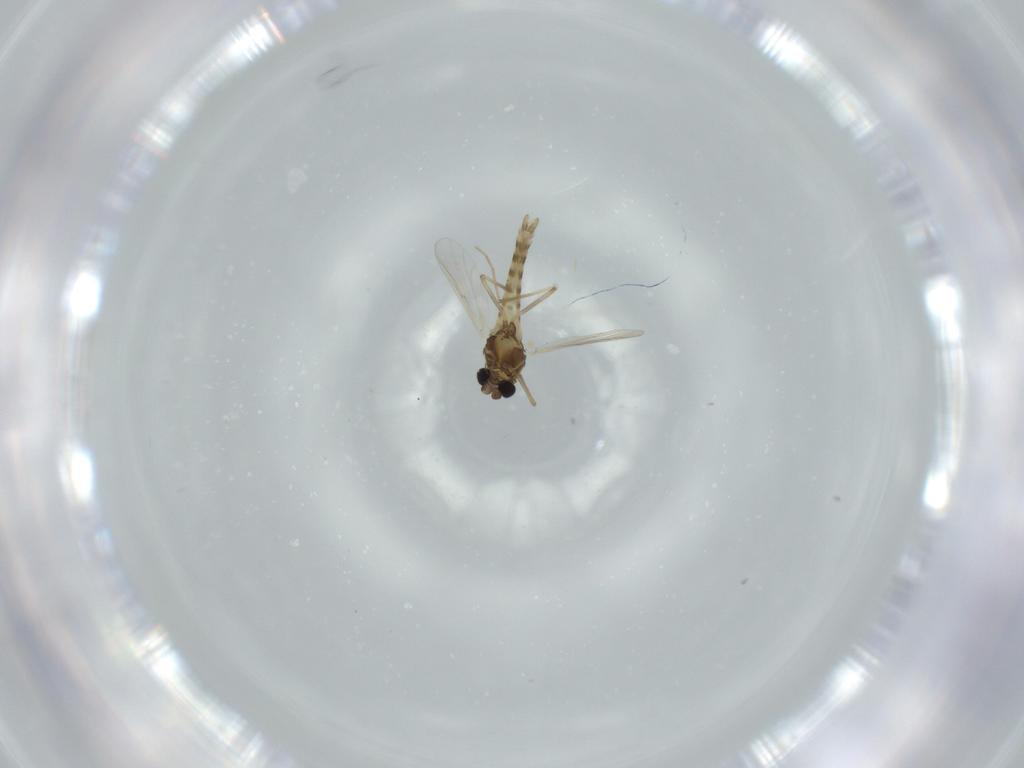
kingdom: Animalia
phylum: Arthropoda
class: Insecta
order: Diptera
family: Chironomidae
